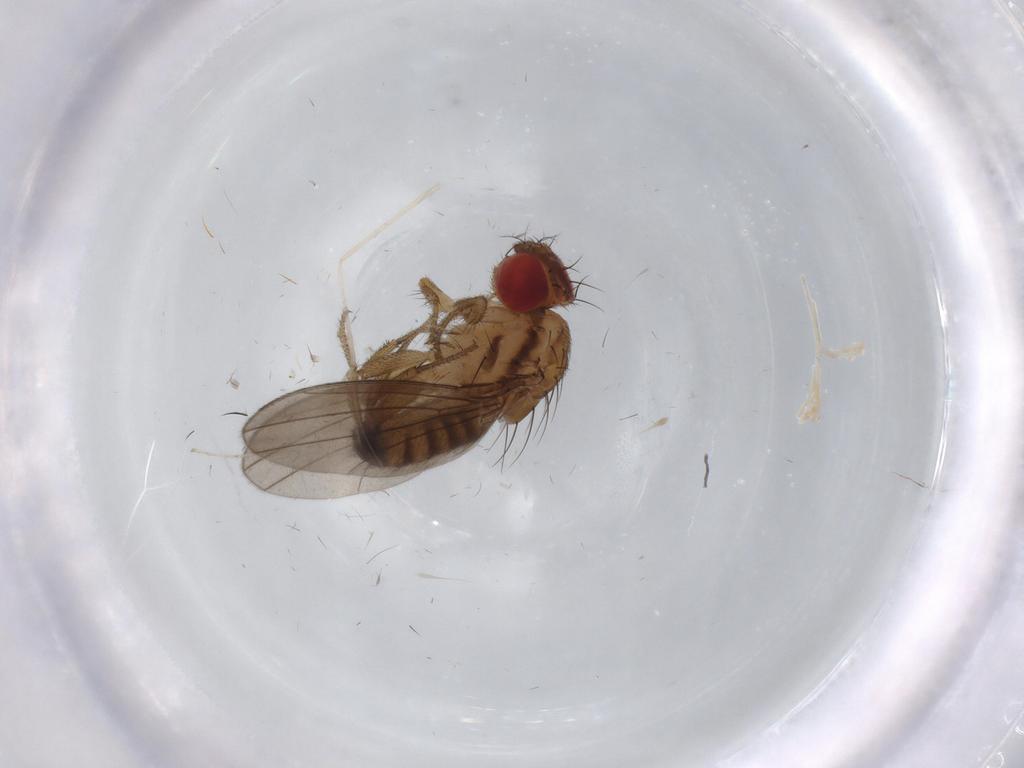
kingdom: Animalia
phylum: Arthropoda
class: Insecta
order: Diptera
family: Drosophilidae
